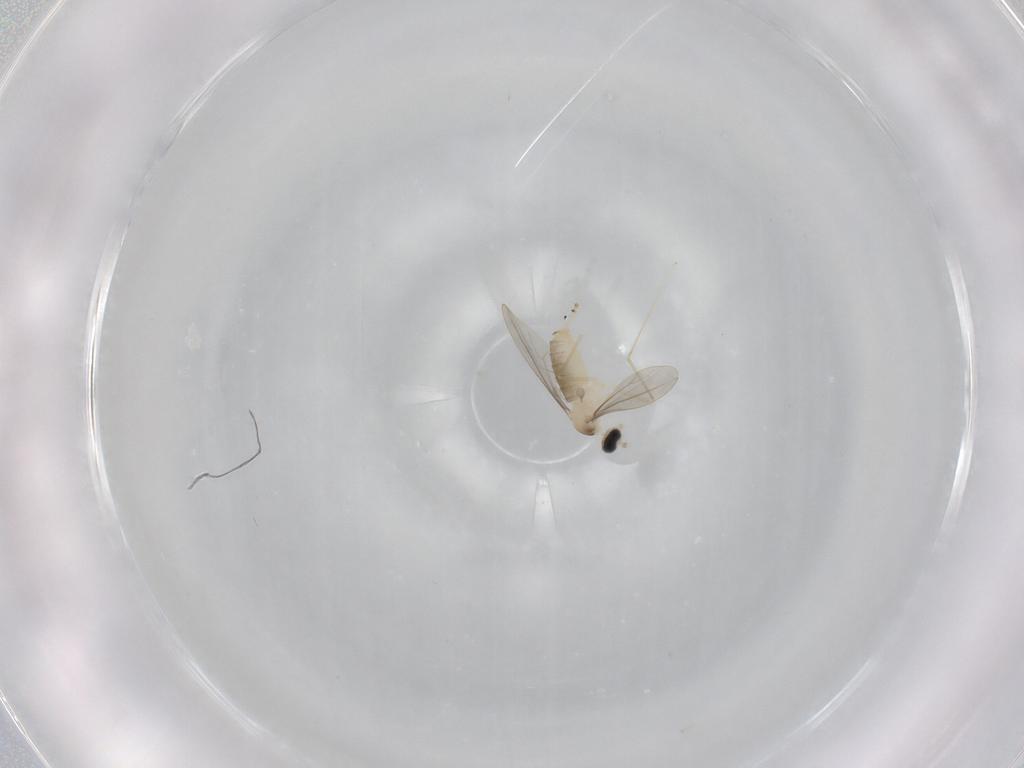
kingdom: Animalia
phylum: Arthropoda
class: Insecta
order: Diptera
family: Cecidomyiidae
